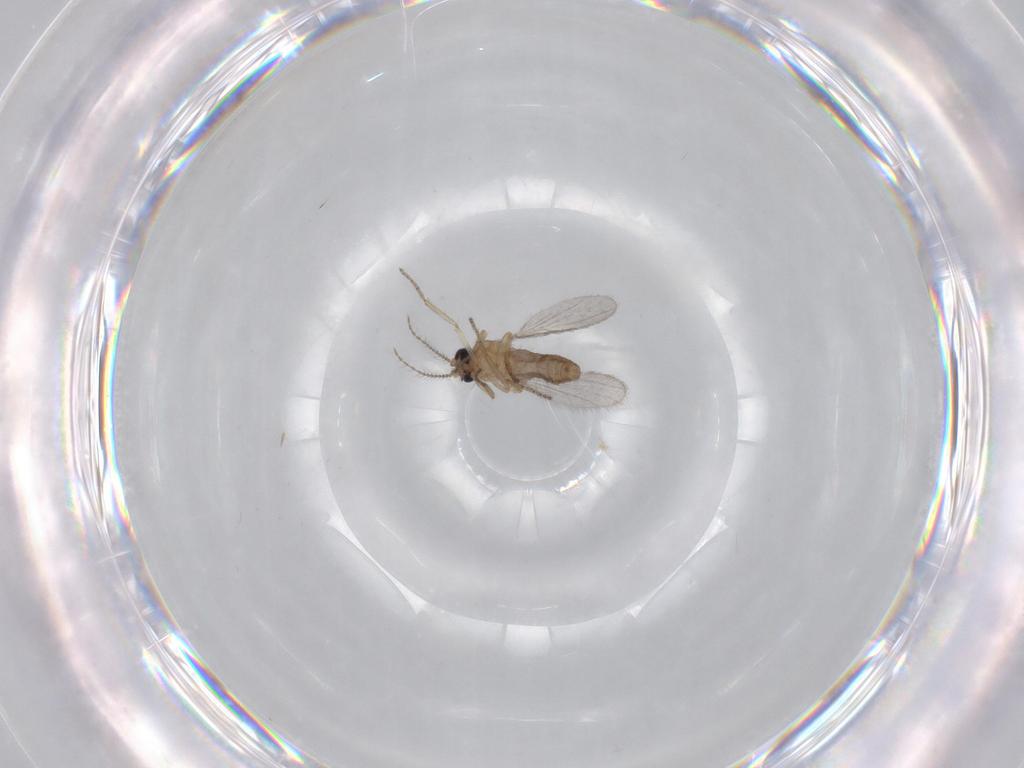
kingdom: Animalia
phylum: Arthropoda
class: Insecta
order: Diptera
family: Ceratopogonidae
